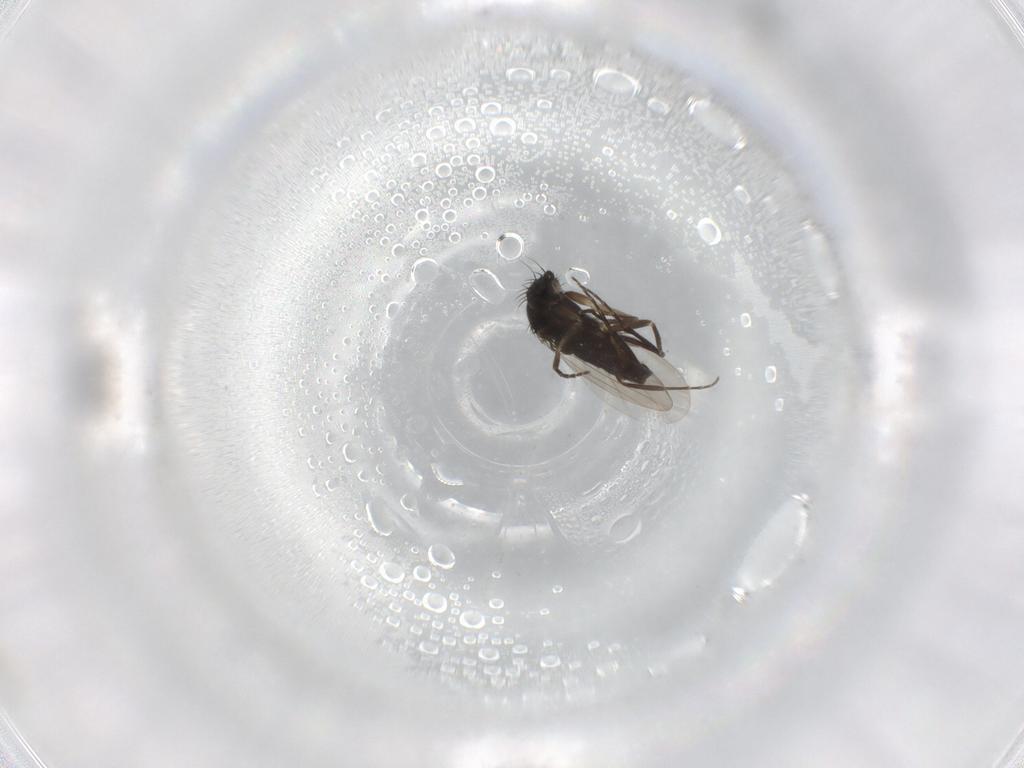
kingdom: Animalia
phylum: Arthropoda
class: Insecta
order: Diptera
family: Phoridae
